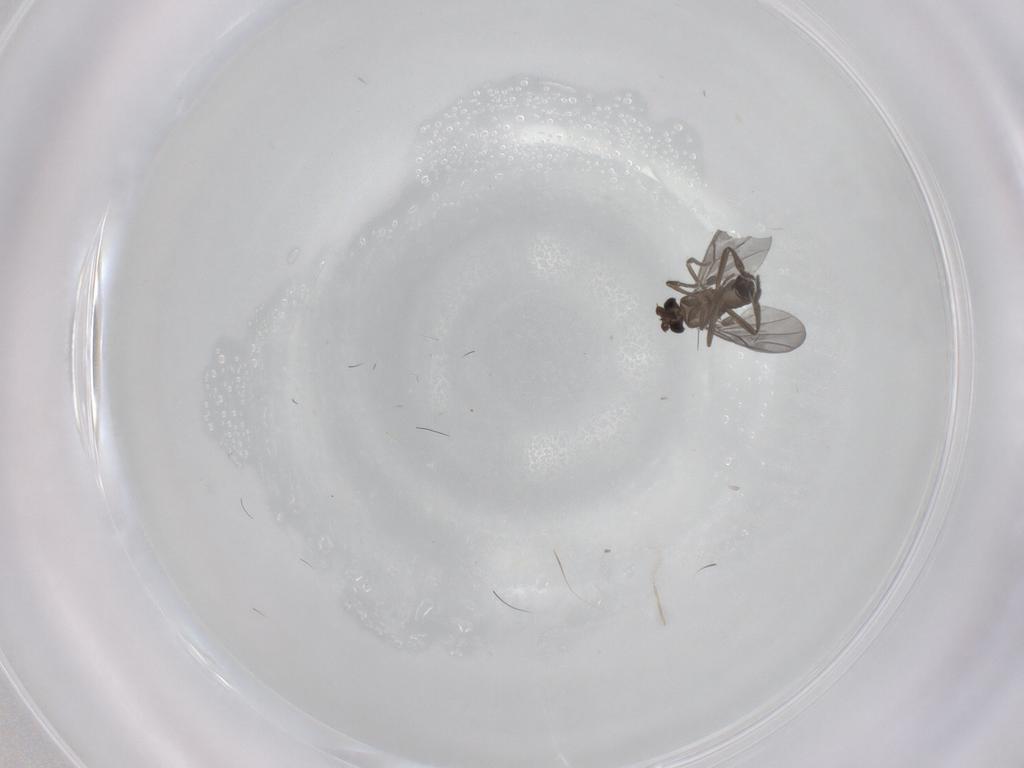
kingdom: Animalia
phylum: Arthropoda
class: Insecta
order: Diptera
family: Phoridae
